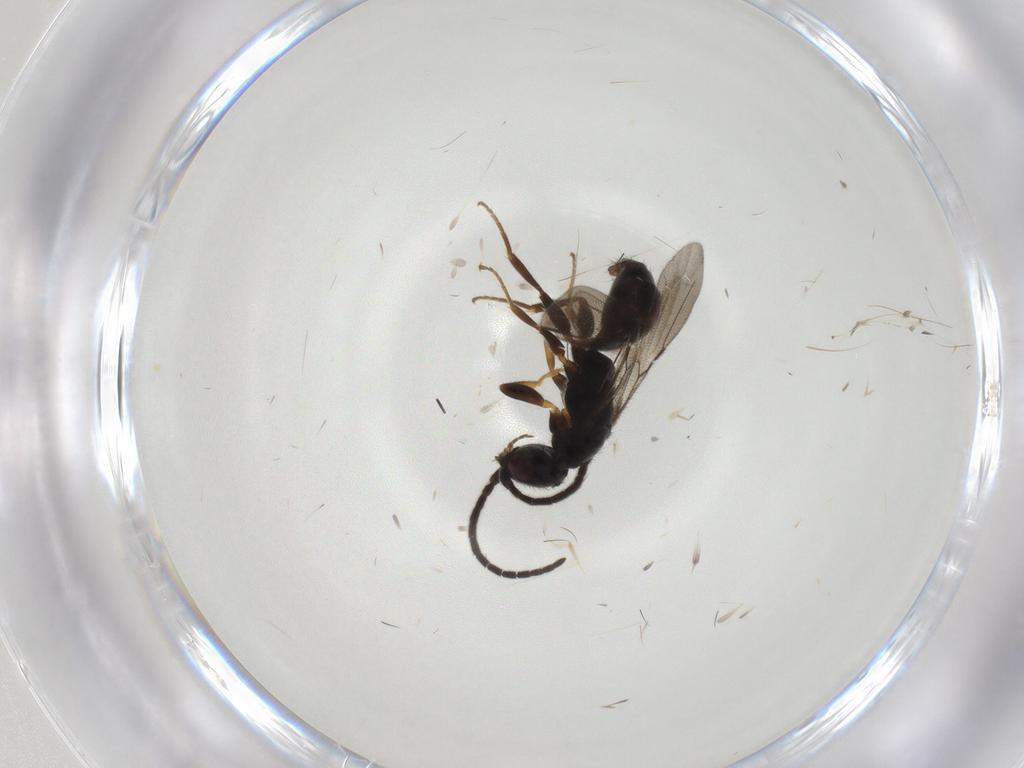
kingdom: Animalia
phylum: Arthropoda
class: Insecta
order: Hymenoptera
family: Bethylidae
